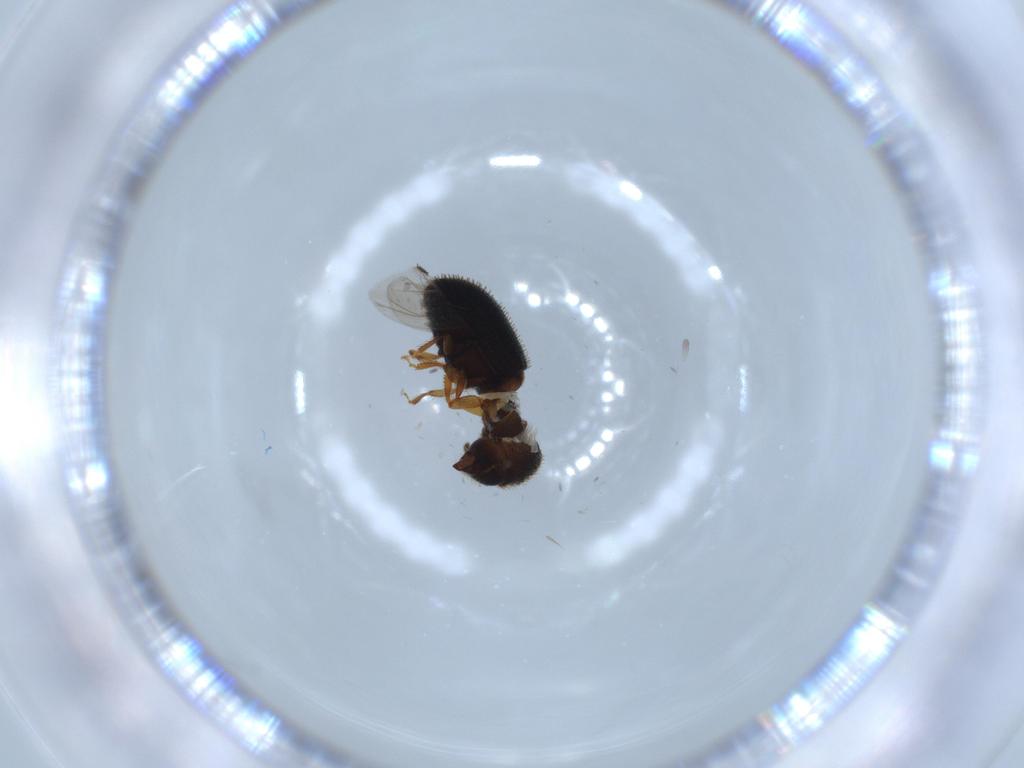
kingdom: Animalia
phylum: Arthropoda
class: Insecta
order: Coleoptera
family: Curculionidae
